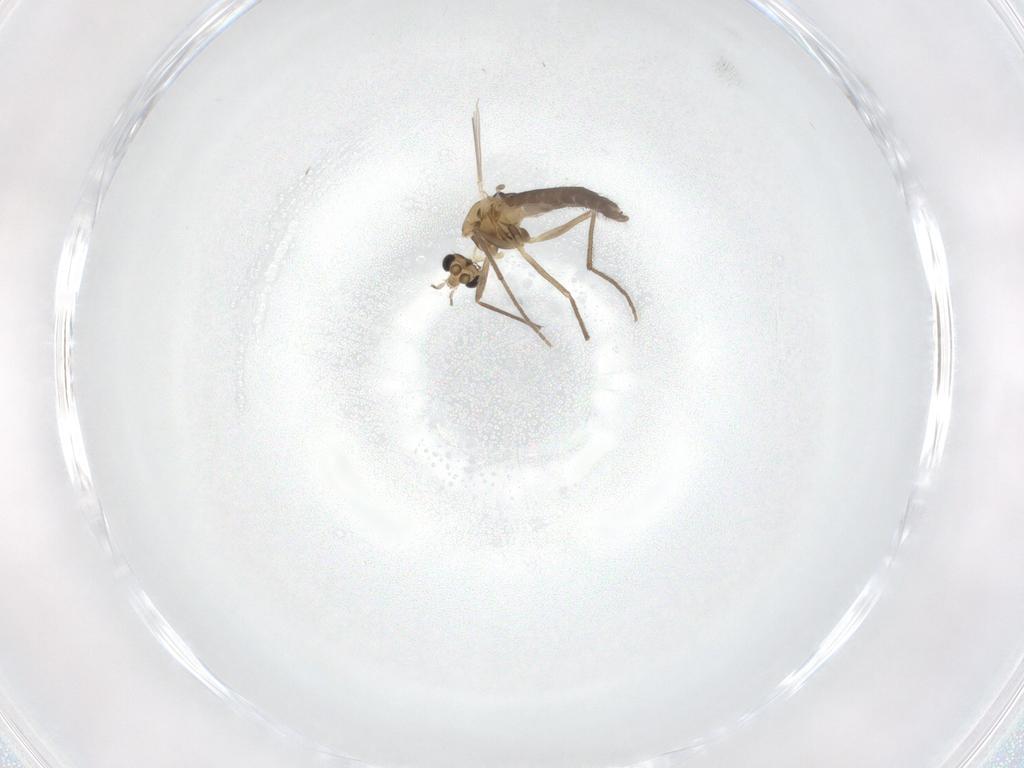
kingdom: Animalia
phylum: Arthropoda
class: Insecta
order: Diptera
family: Chironomidae
